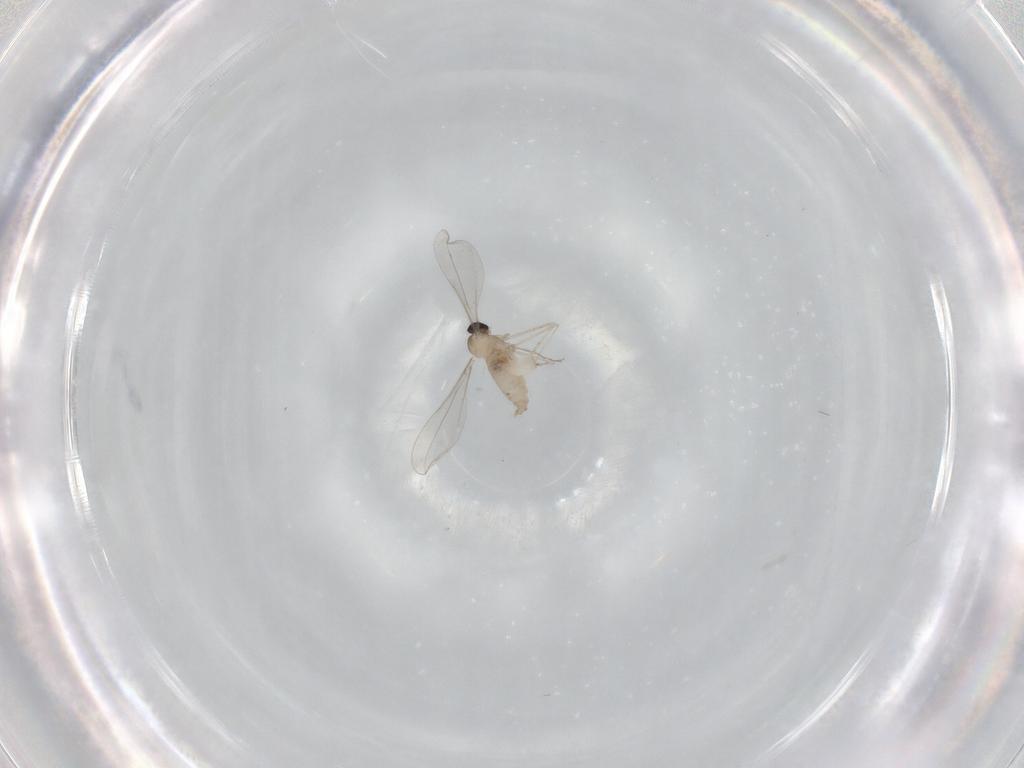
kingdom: Animalia
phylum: Arthropoda
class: Insecta
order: Diptera
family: Cecidomyiidae
